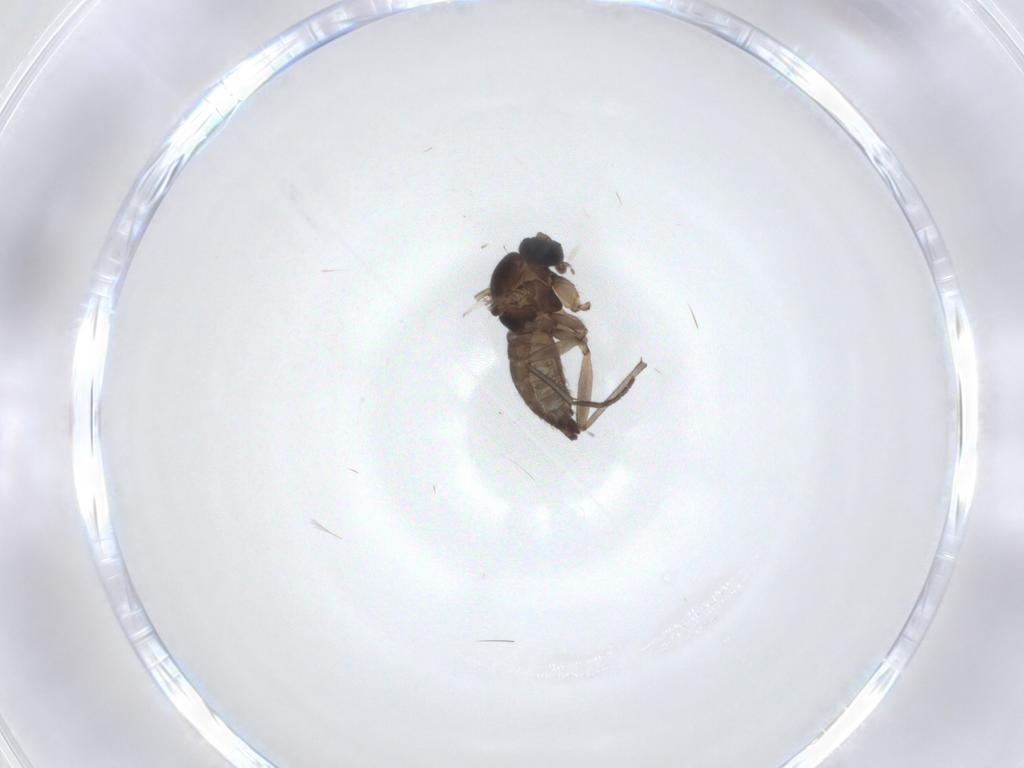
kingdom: Animalia
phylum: Arthropoda
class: Insecta
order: Diptera
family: Sciaridae
